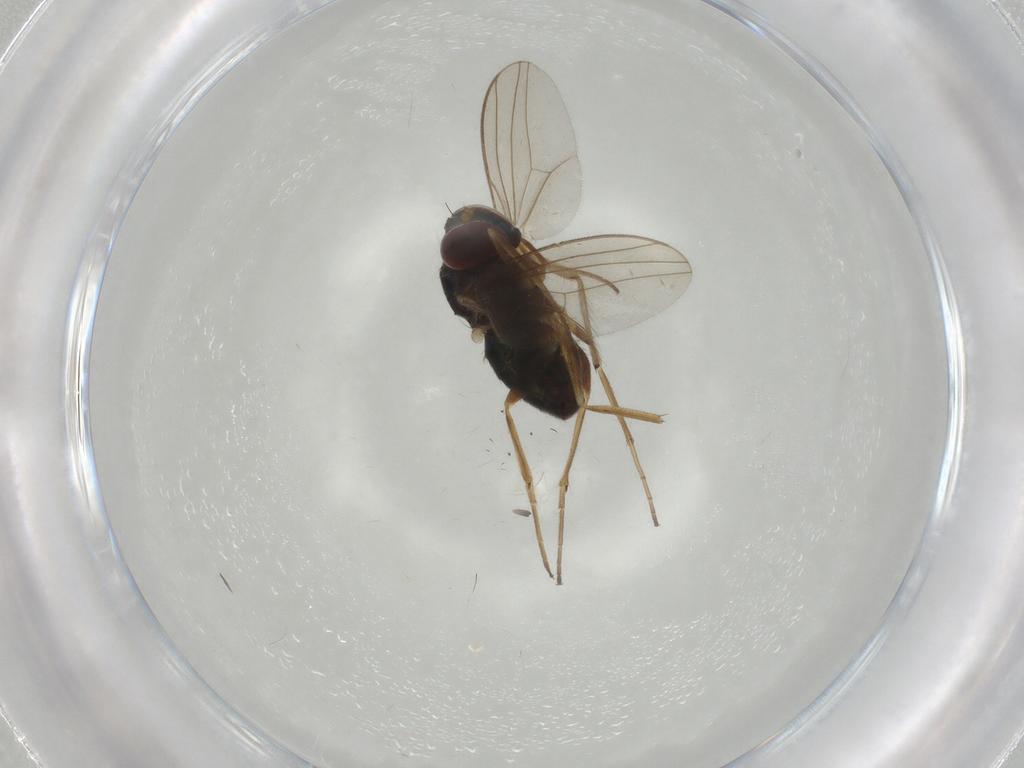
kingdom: Animalia
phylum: Arthropoda
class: Insecta
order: Diptera
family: Dolichopodidae
